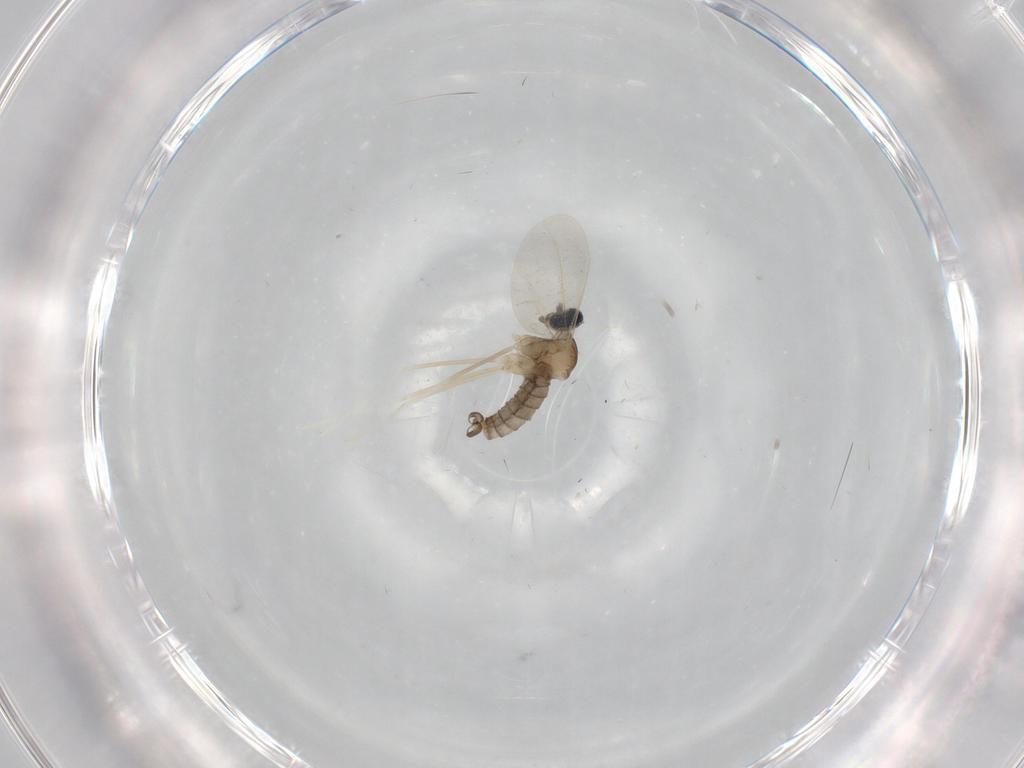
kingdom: Animalia
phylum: Arthropoda
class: Insecta
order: Diptera
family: Cecidomyiidae
